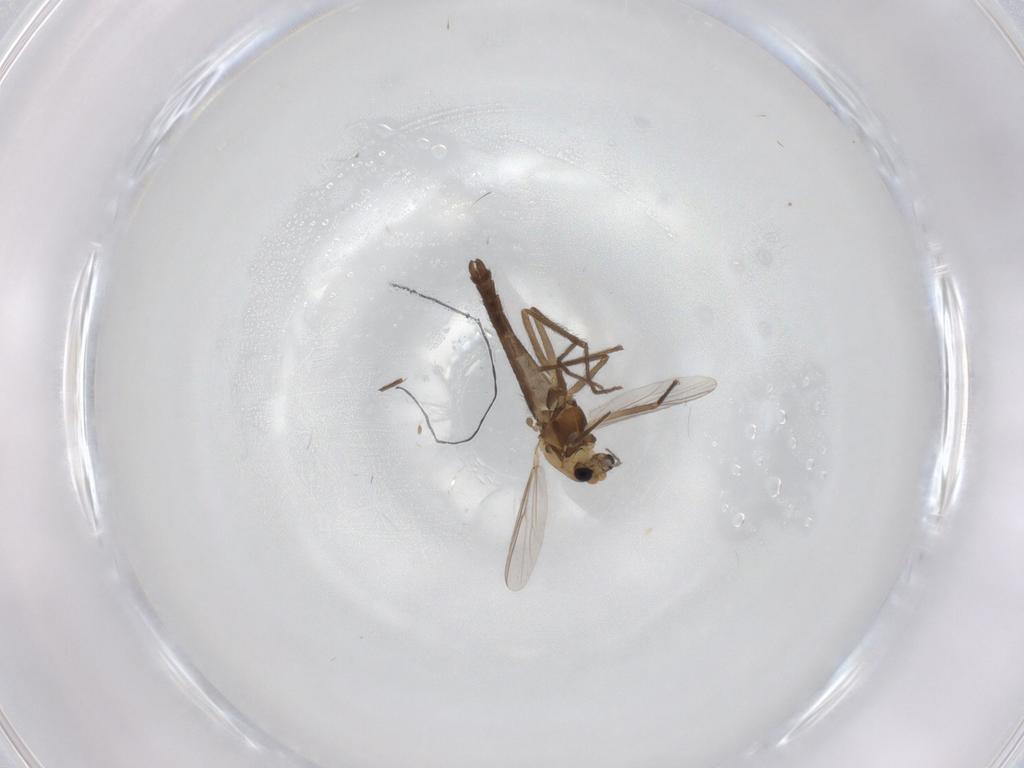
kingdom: Animalia
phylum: Arthropoda
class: Insecta
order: Diptera
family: Chironomidae
